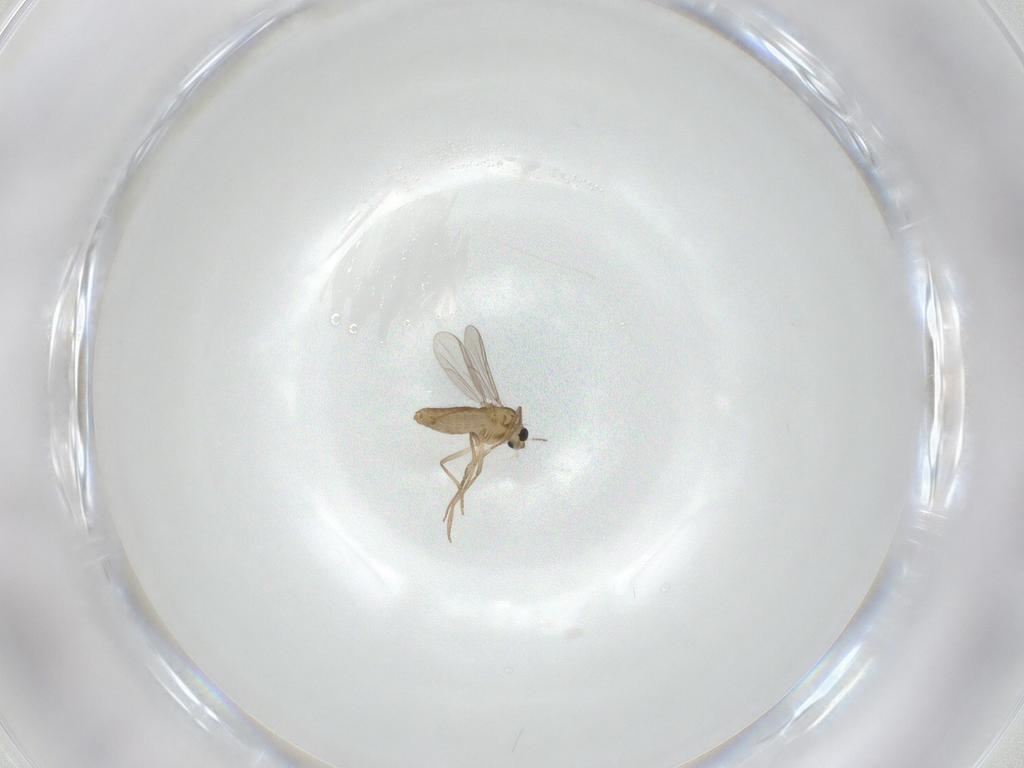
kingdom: Animalia
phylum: Arthropoda
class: Insecta
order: Diptera
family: Chironomidae
